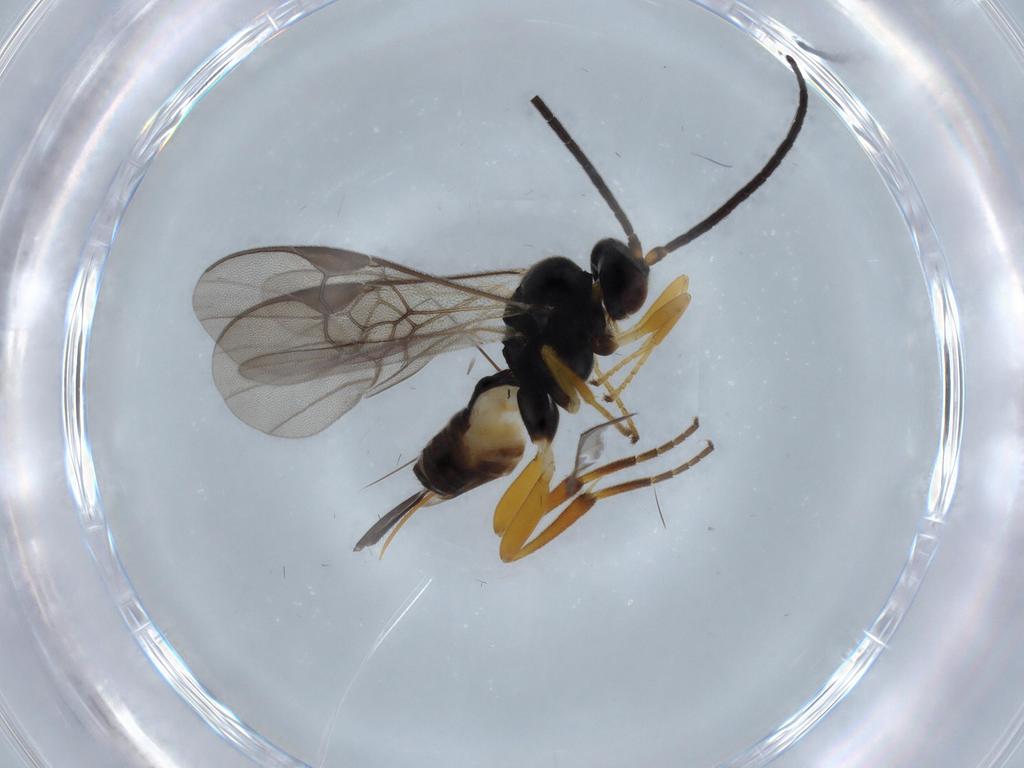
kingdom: Animalia
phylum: Arthropoda
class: Insecta
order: Hymenoptera
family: Braconidae
